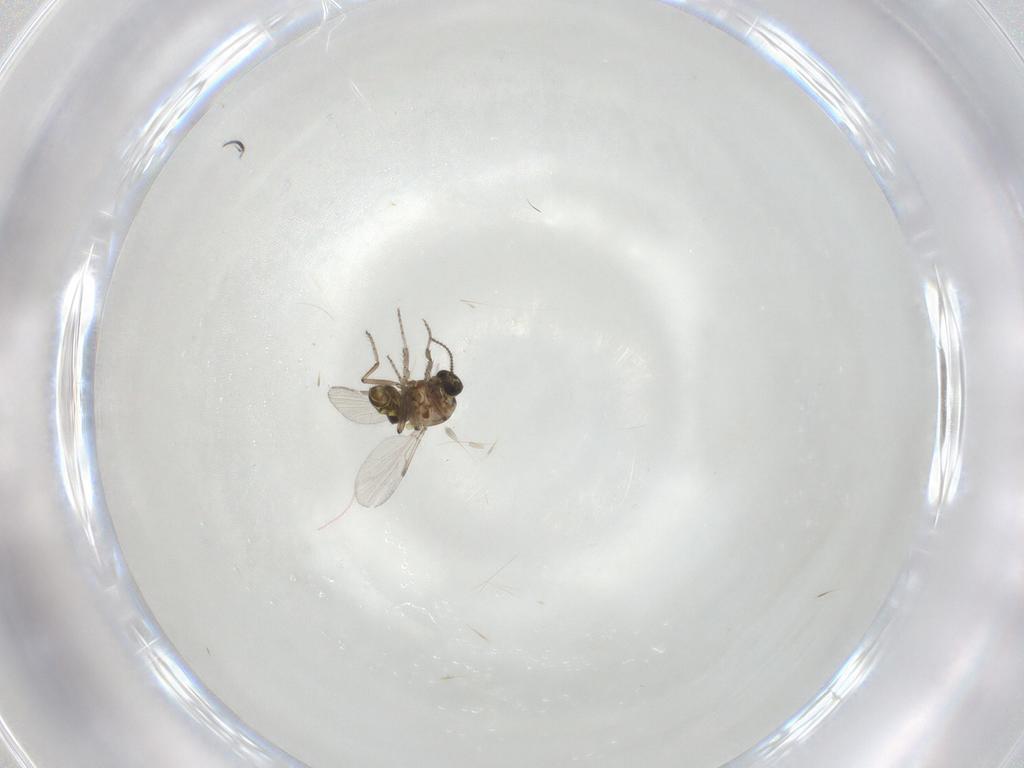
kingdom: Animalia
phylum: Arthropoda
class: Insecta
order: Diptera
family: Ceratopogonidae
